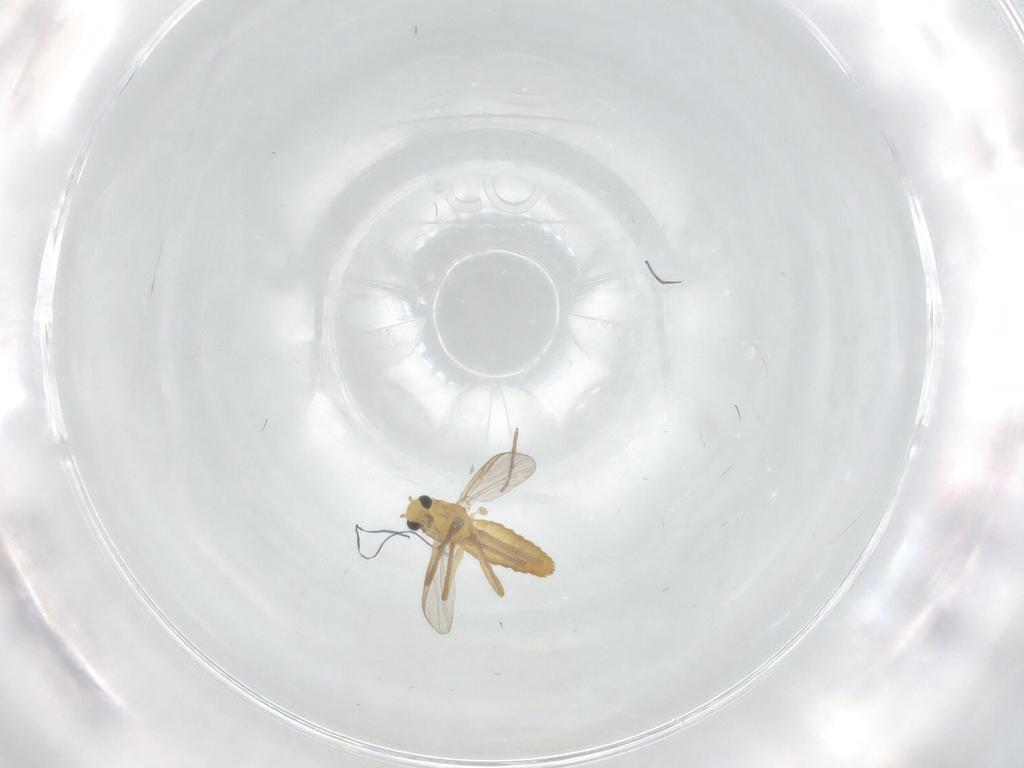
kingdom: Animalia
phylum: Arthropoda
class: Insecta
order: Diptera
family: Chironomidae
